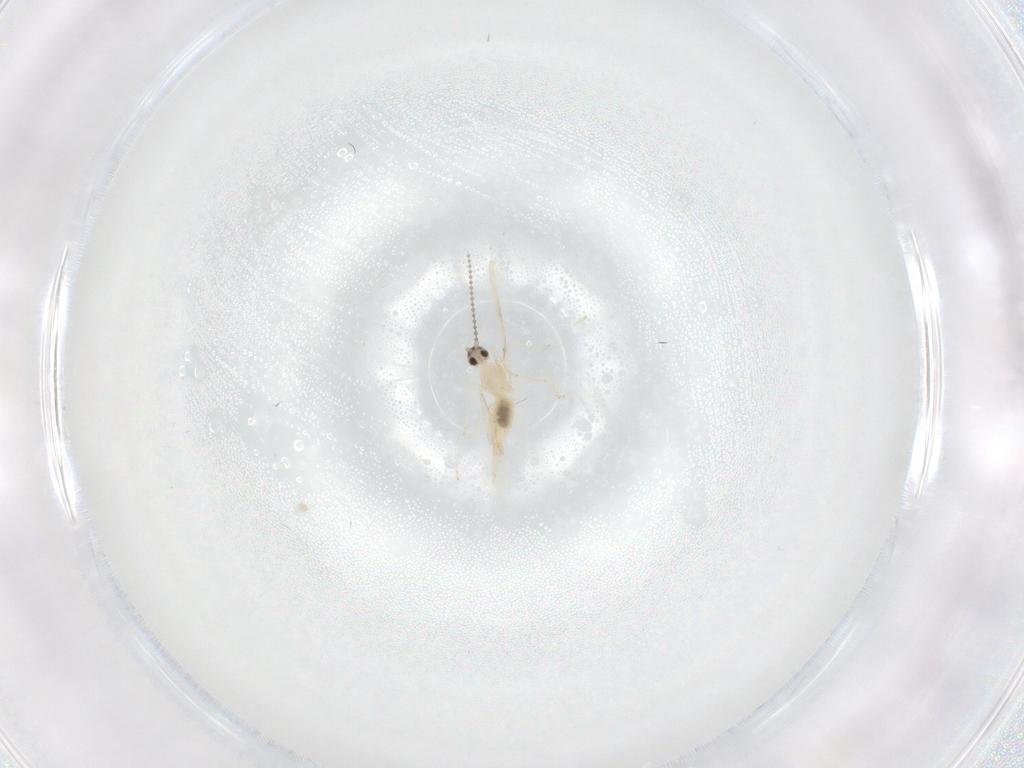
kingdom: Animalia
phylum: Arthropoda
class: Insecta
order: Diptera
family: Ceratopogonidae
